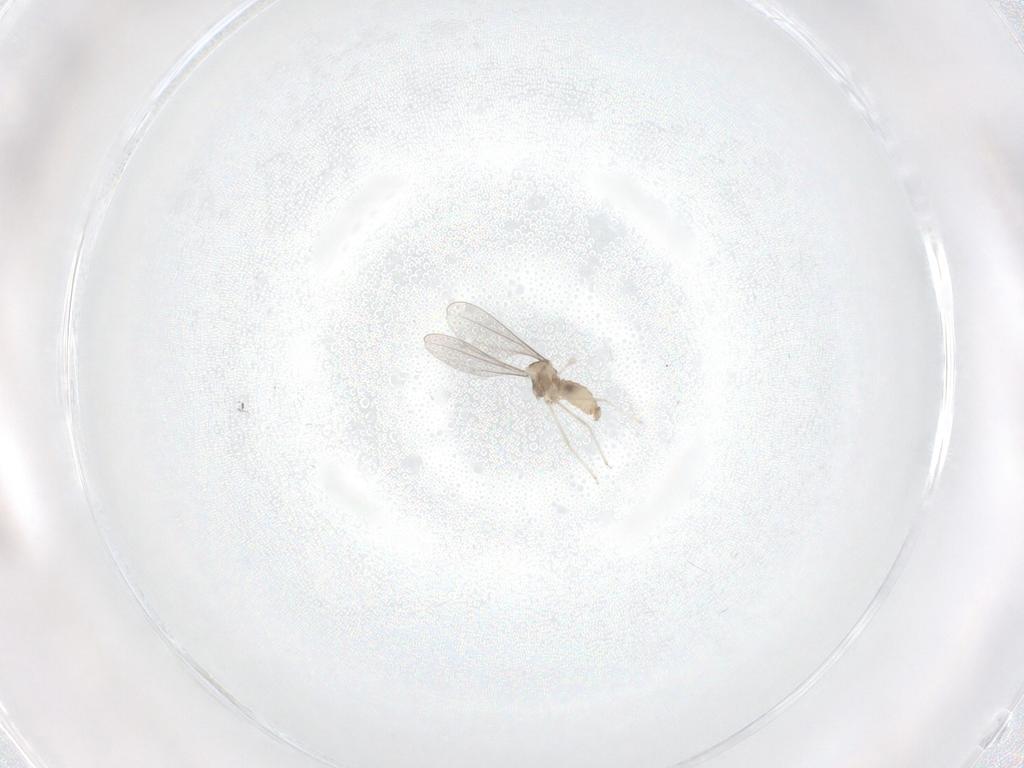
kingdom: Animalia
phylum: Arthropoda
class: Insecta
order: Diptera
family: Cecidomyiidae
